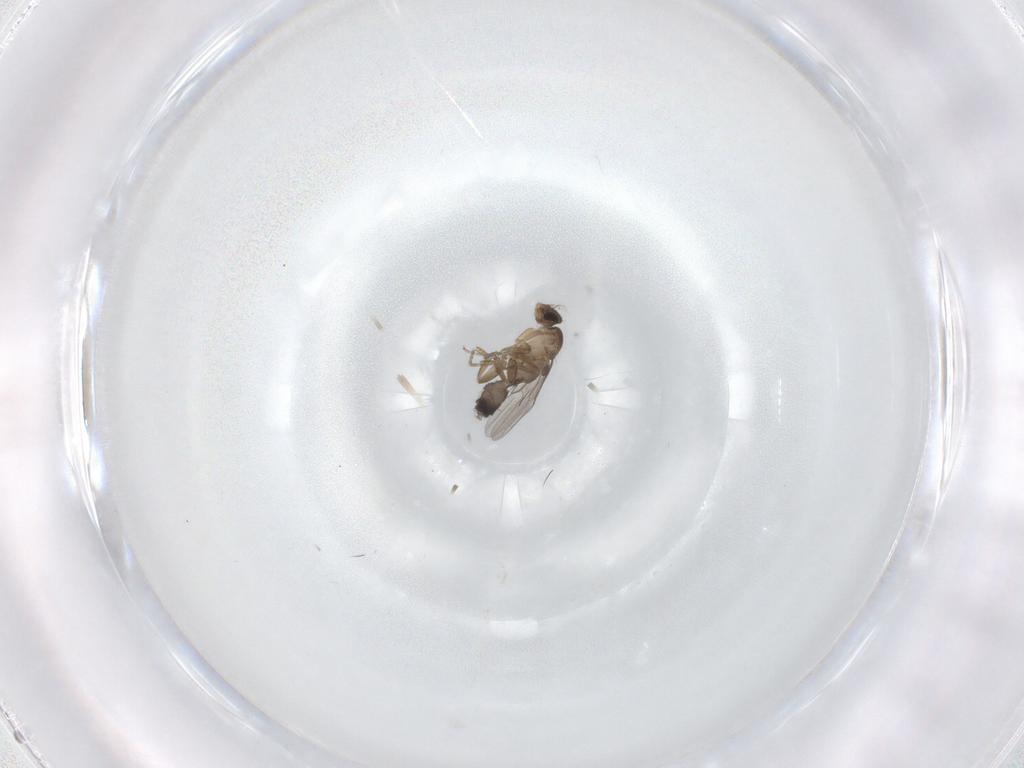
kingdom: Animalia
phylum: Arthropoda
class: Insecta
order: Diptera
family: Phoridae
